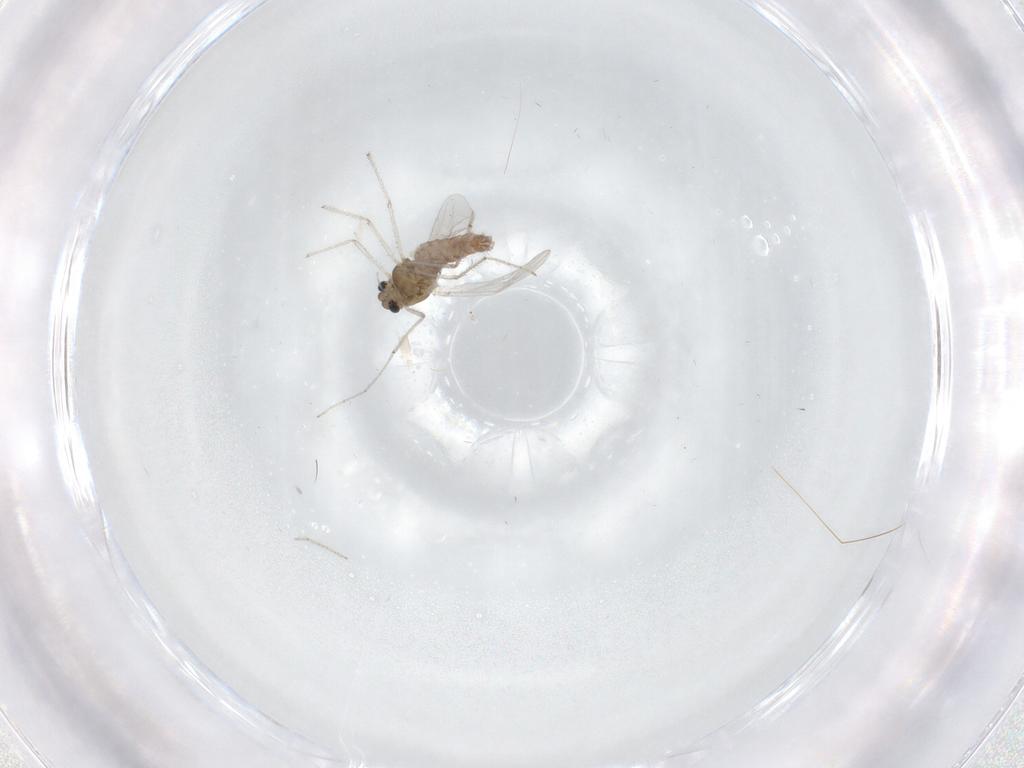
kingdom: Animalia
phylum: Arthropoda
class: Insecta
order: Diptera
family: Chironomidae
